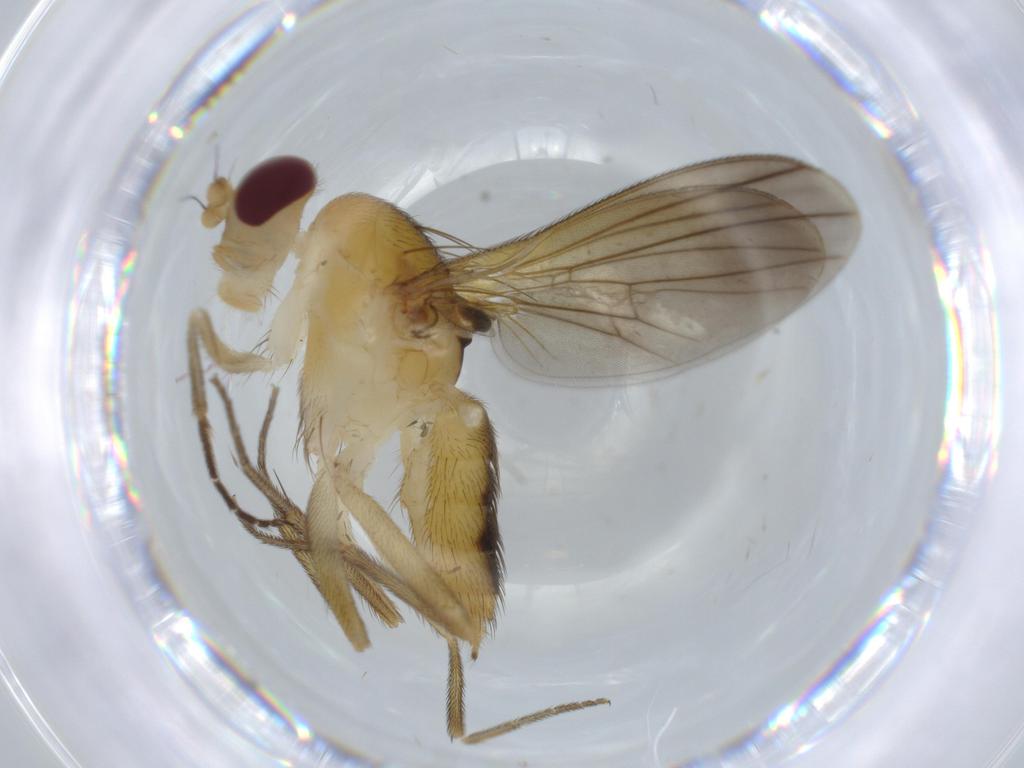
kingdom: Animalia
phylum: Arthropoda
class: Insecta
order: Diptera
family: Clusiidae
